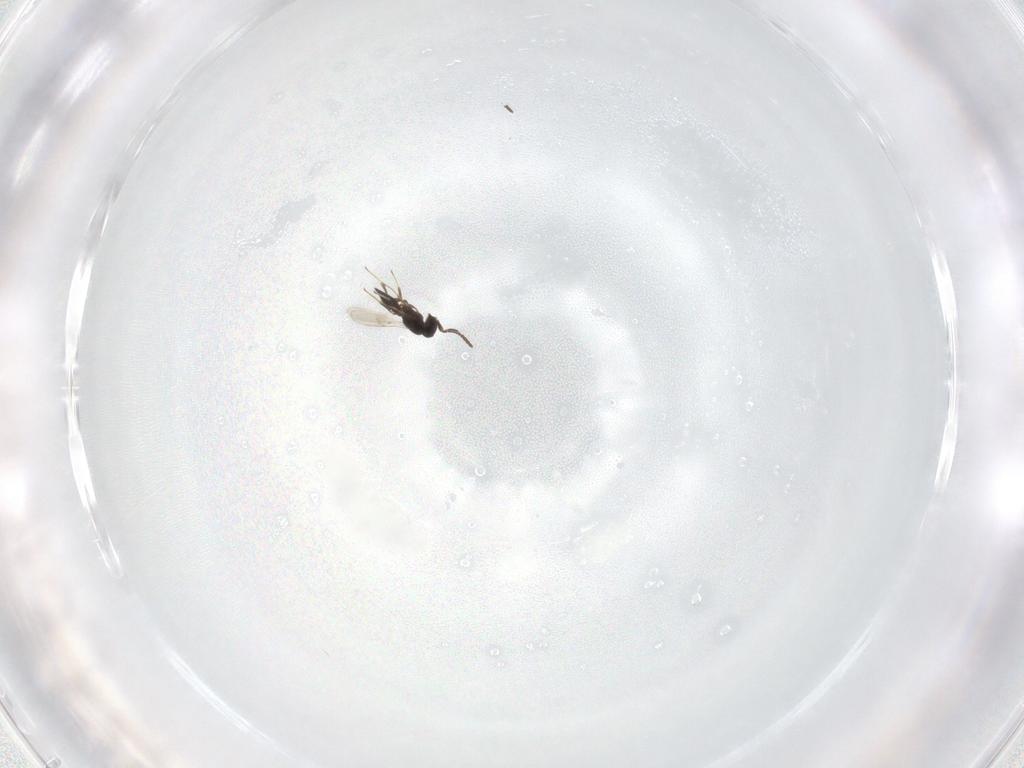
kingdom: Animalia
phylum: Arthropoda
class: Insecta
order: Hymenoptera
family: Scelionidae
